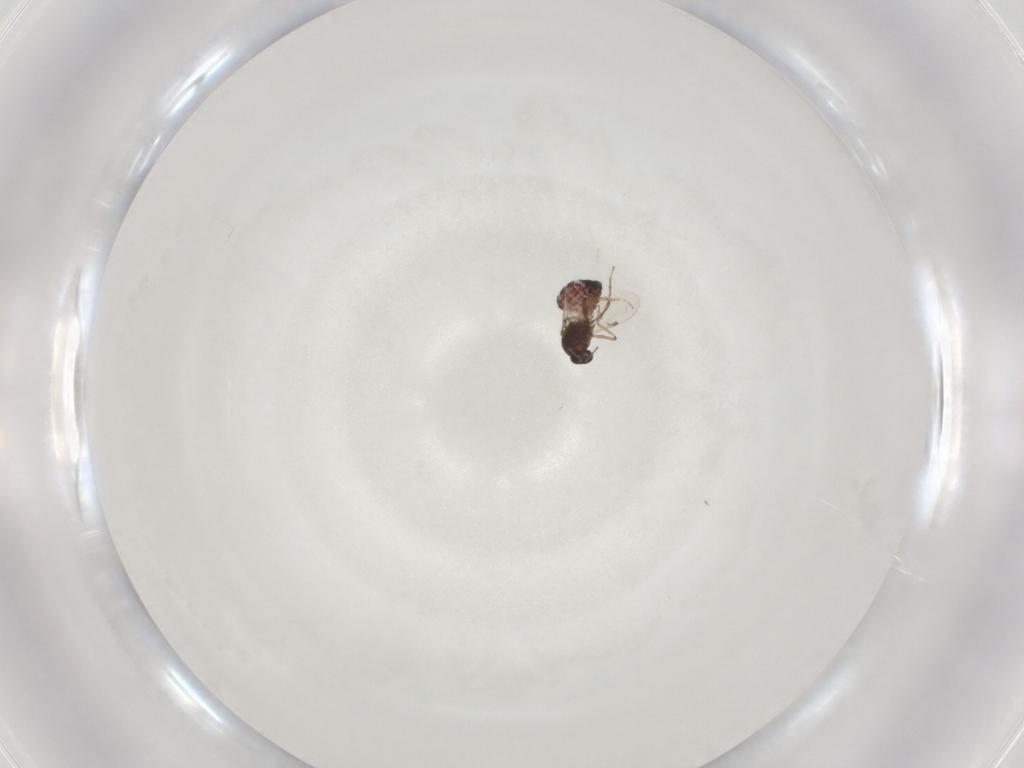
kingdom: Animalia
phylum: Arthropoda
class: Insecta
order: Diptera
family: Ceratopogonidae
